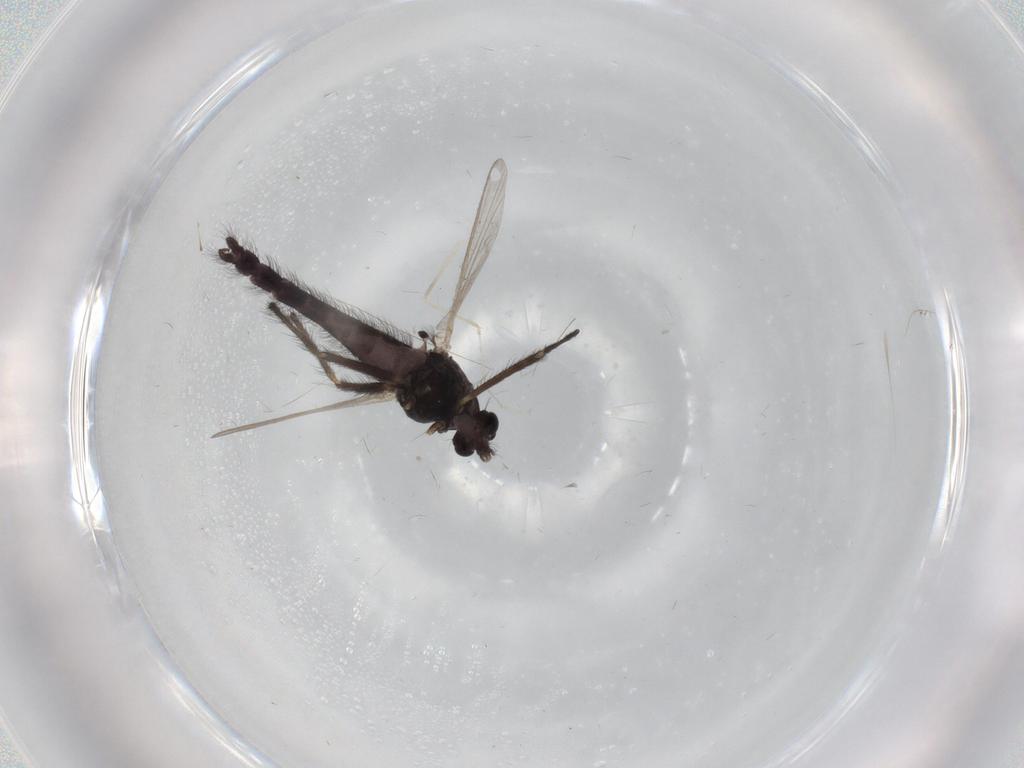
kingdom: Animalia
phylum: Arthropoda
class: Insecta
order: Diptera
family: Chironomidae
